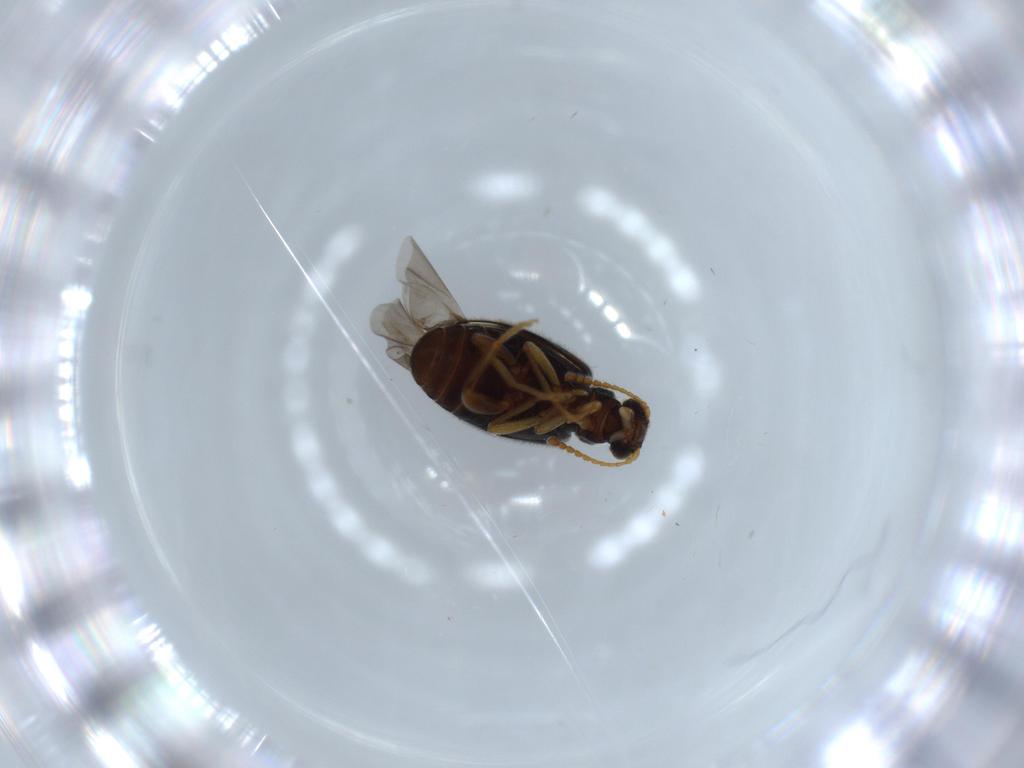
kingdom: Animalia
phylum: Arthropoda
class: Insecta
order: Coleoptera
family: Aderidae
